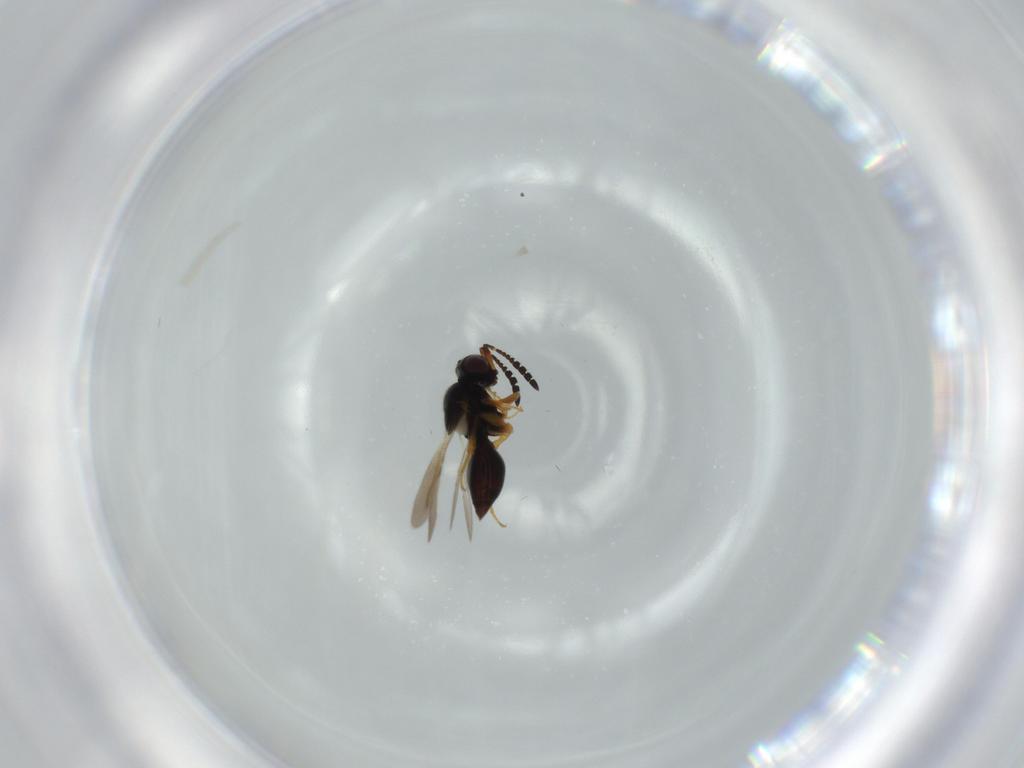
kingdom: Animalia
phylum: Arthropoda
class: Insecta
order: Hymenoptera
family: Ceraphronidae
